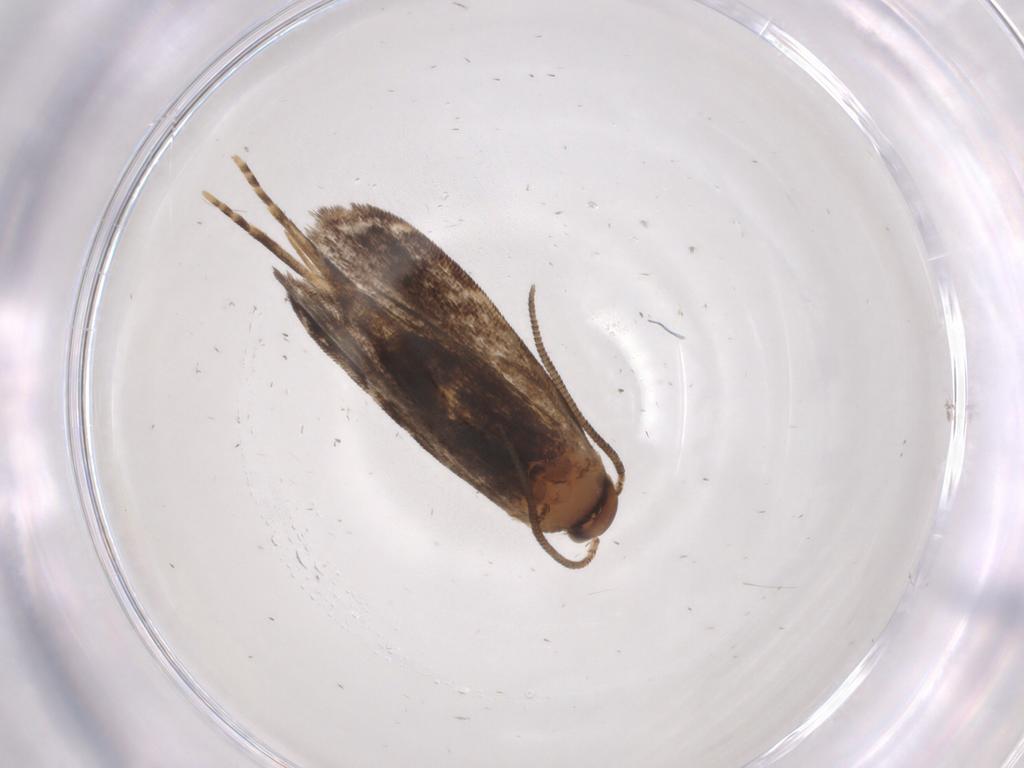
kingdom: Animalia
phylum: Arthropoda
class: Insecta
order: Lepidoptera
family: Dryadaulidae
